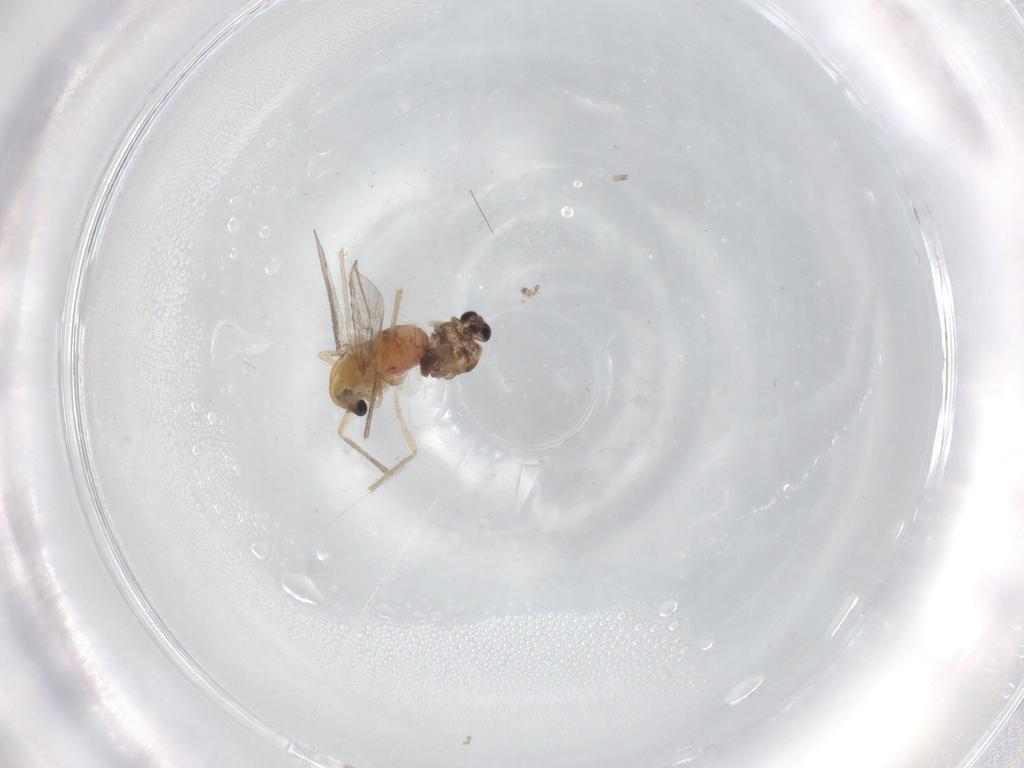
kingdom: Animalia
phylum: Arthropoda
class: Insecta
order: Diptera
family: Sciaridae
